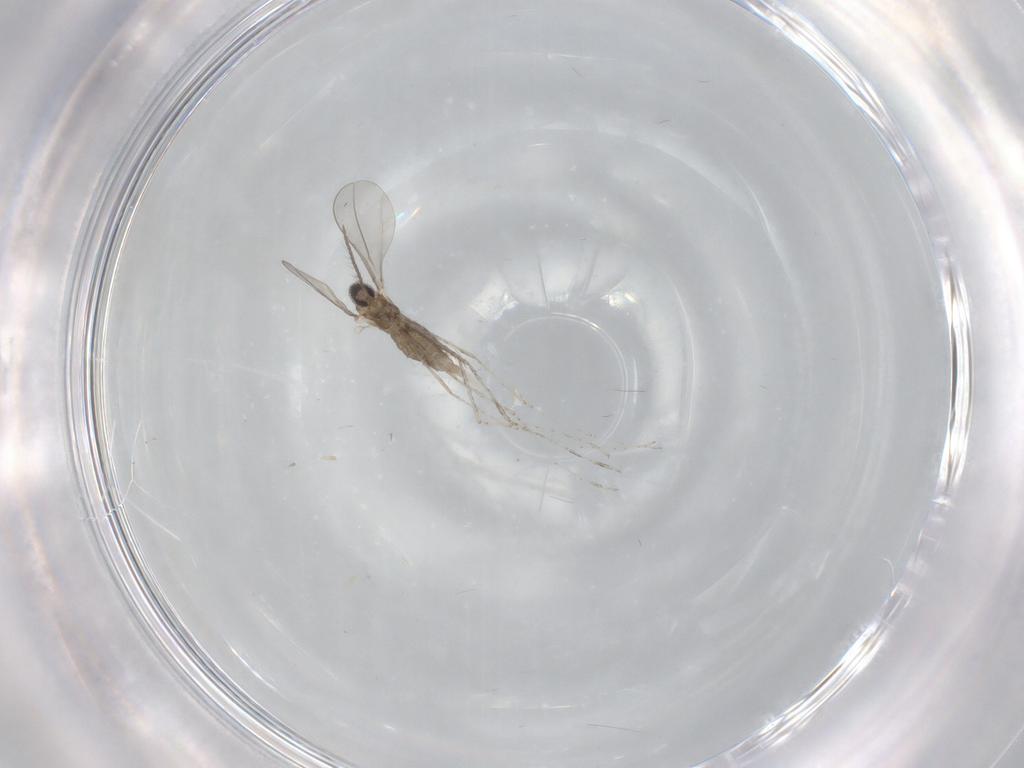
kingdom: Animalia
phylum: Arthropoda
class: Insecta
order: Diptera
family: Cecidomyiidae
